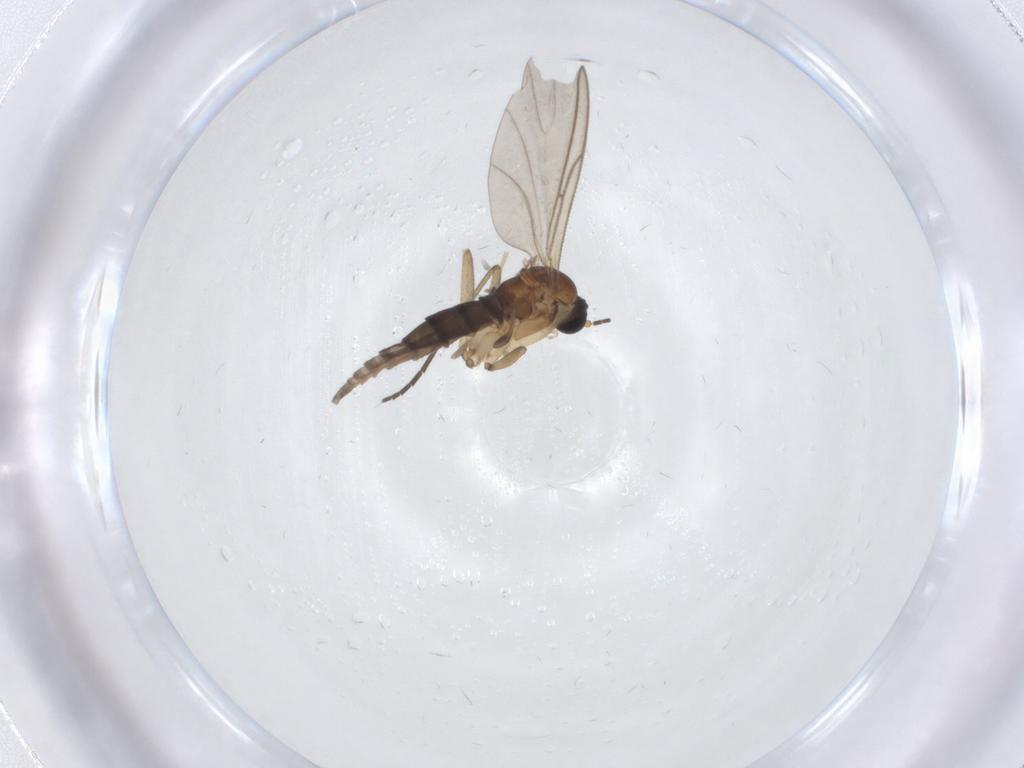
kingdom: Animalia
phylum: Arthropoda
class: Insecta
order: Diptera
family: Sciaridae
